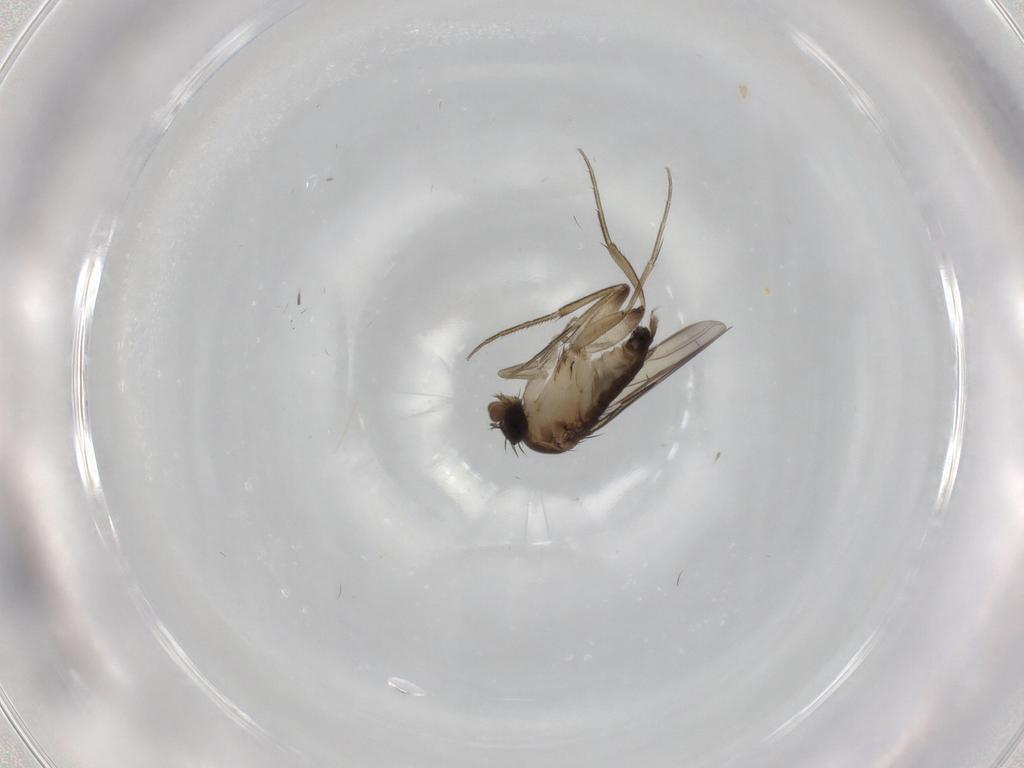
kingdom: Animalia
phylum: Arthropoda
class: Insecta
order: Diptera
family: Phoridae
